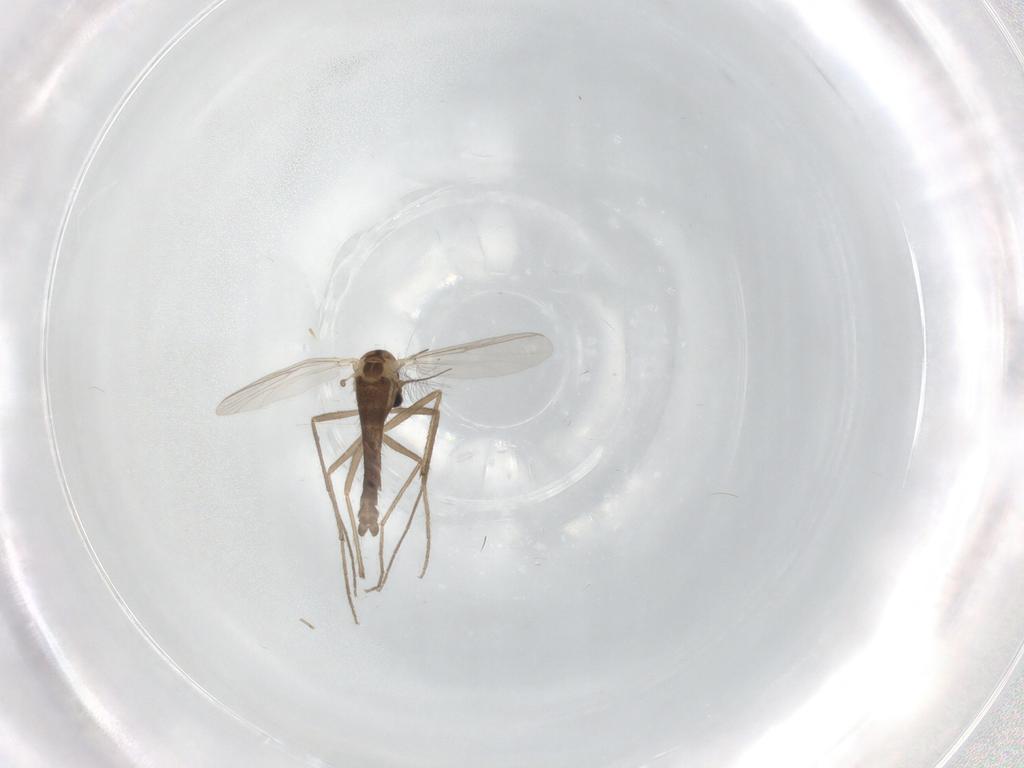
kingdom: Animalia
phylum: Arthropoda
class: Insecta
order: Diptera
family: Chironomidae
